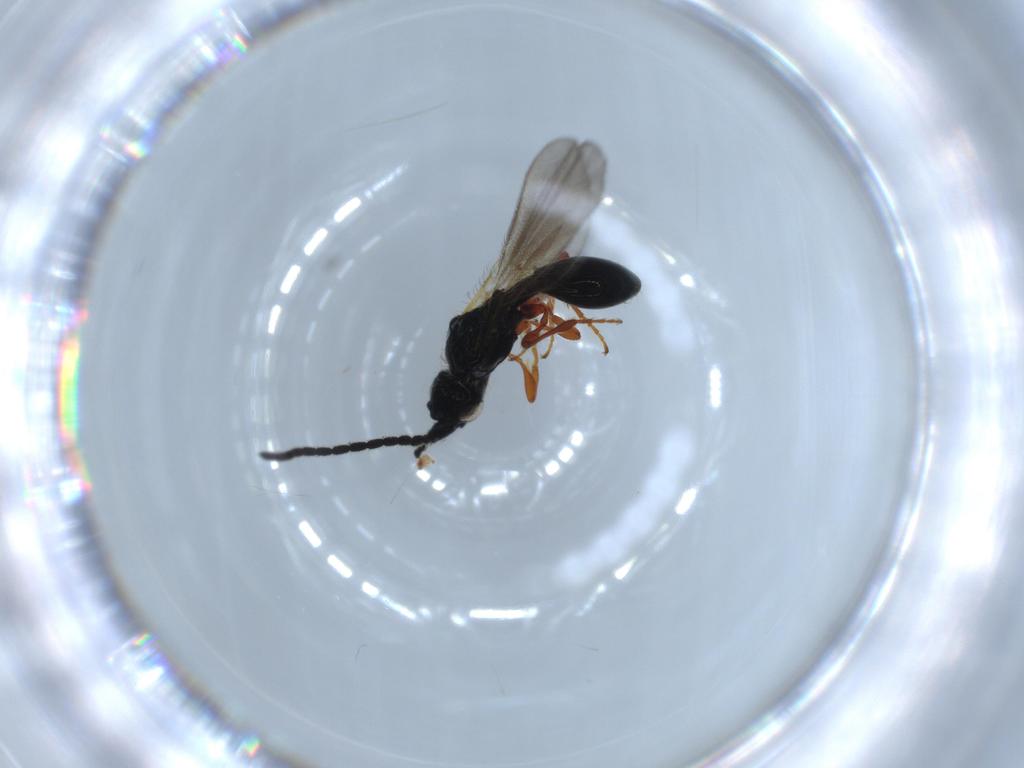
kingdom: Animalia
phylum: Arthropoda
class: Insecta
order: Hymenoptera
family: Diapriidae
